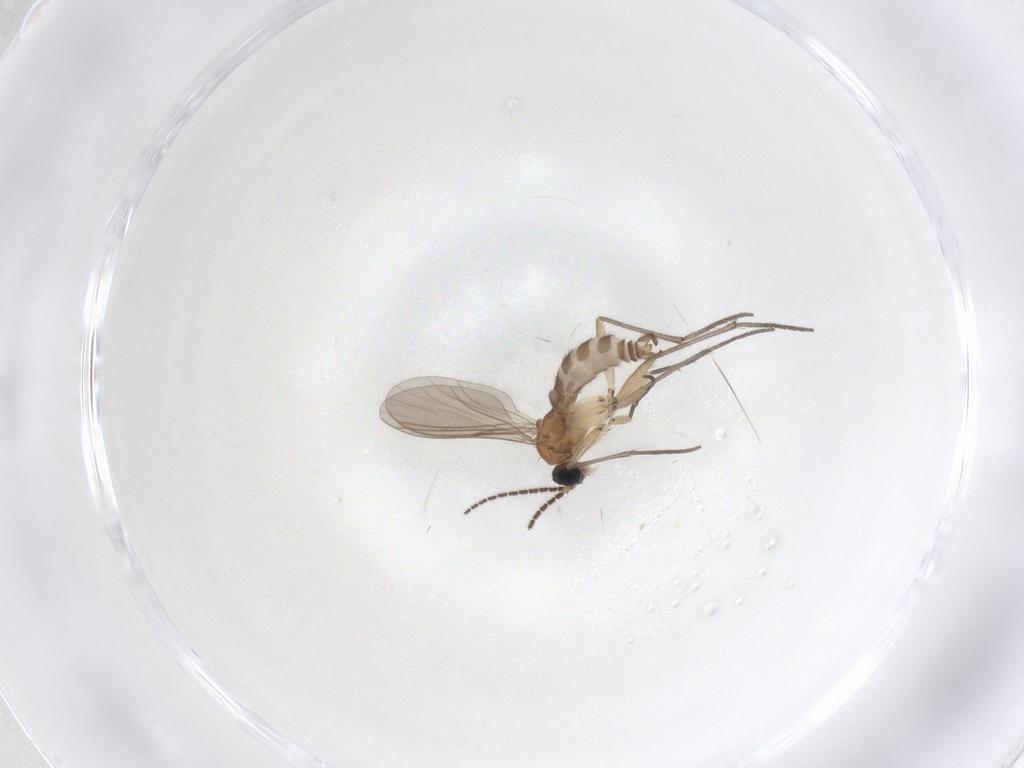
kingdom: Animalia
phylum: Arthropoda
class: Insecta
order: Diptera
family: Sciaridae
